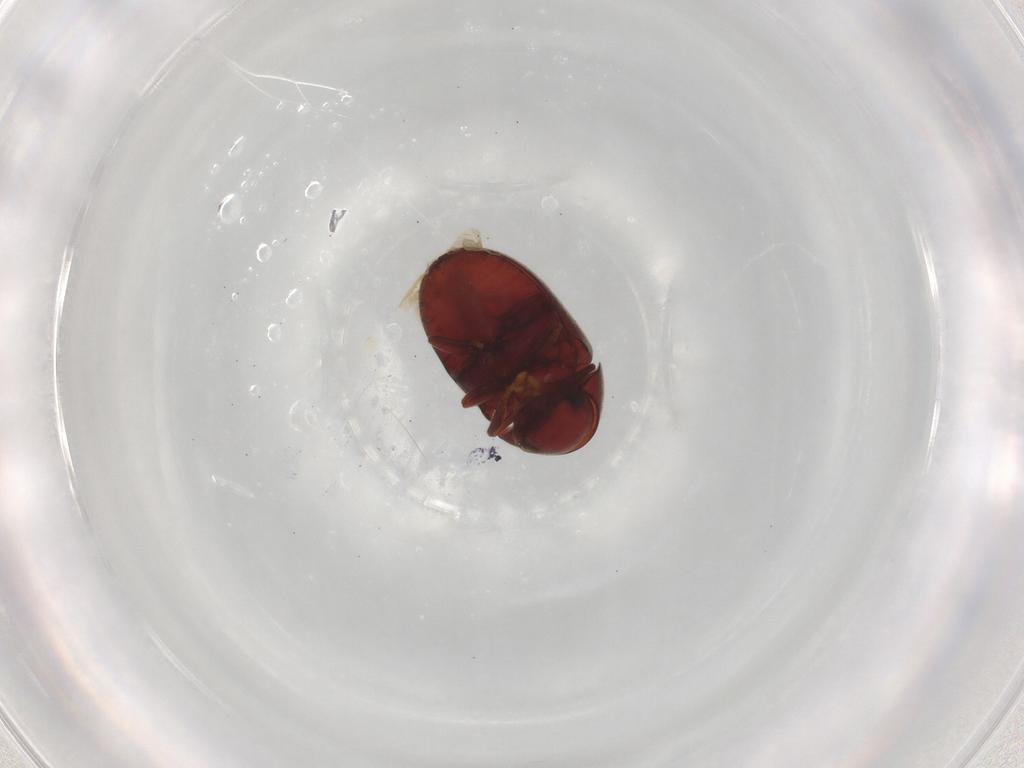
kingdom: Animalia
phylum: Arthropoda
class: Insecta
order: Coleoptera
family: Ptinidae
